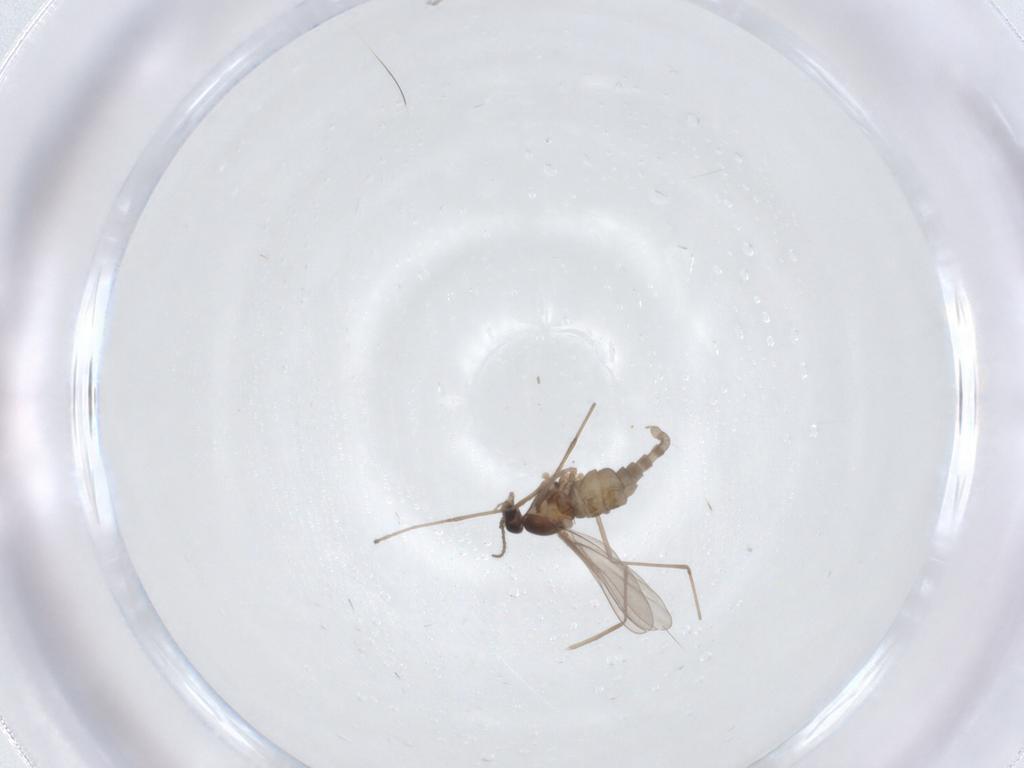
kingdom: Animalia
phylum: Arthropoda
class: Insecta
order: Diptera
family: Cecidomyiidae
